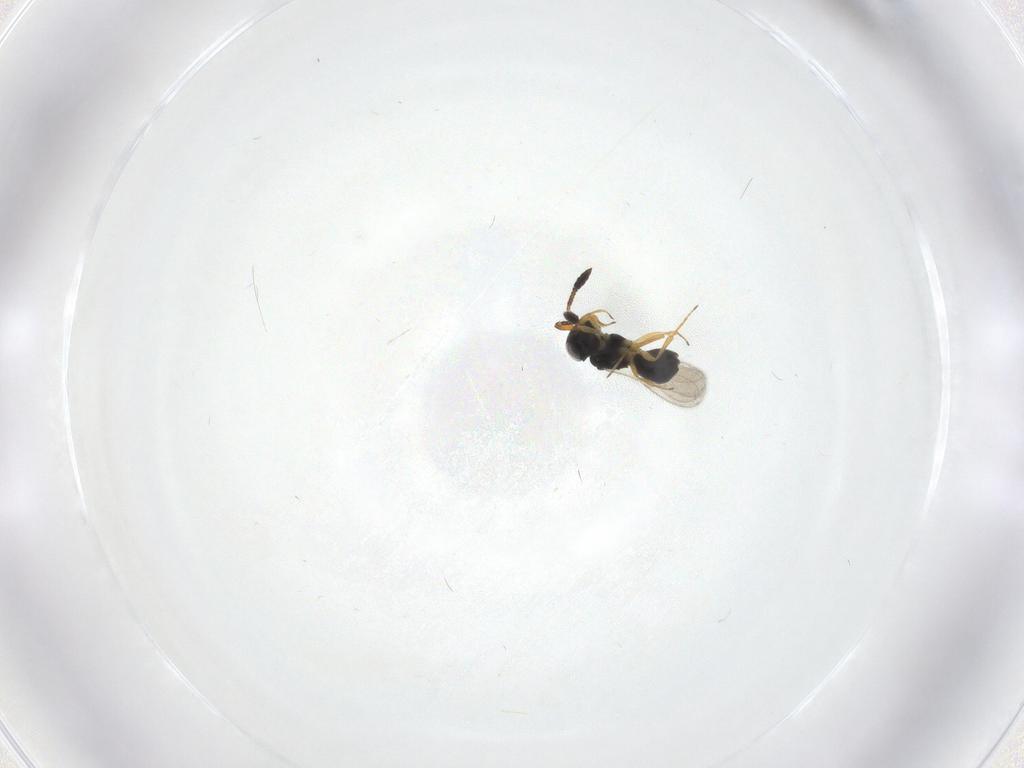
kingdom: Animalia
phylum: Arthropoda
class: Insecta
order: Hymenoptera
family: Scelionidae
